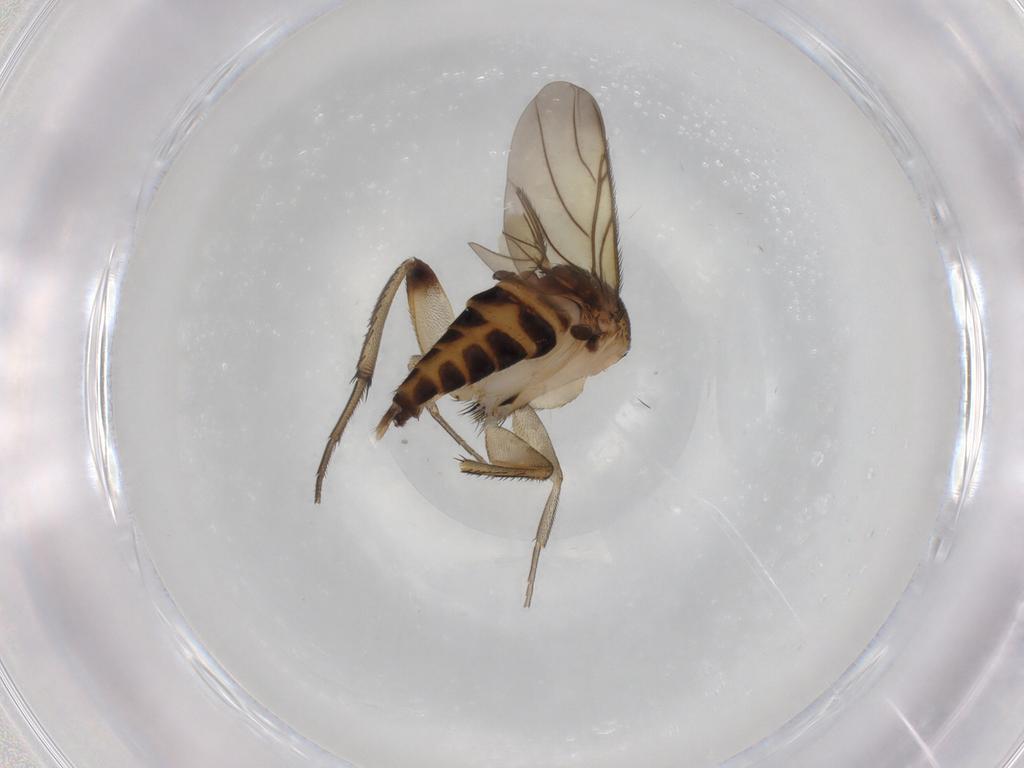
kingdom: Animalia
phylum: Arthropoda
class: Insecta
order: Diptera
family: Phoridae
